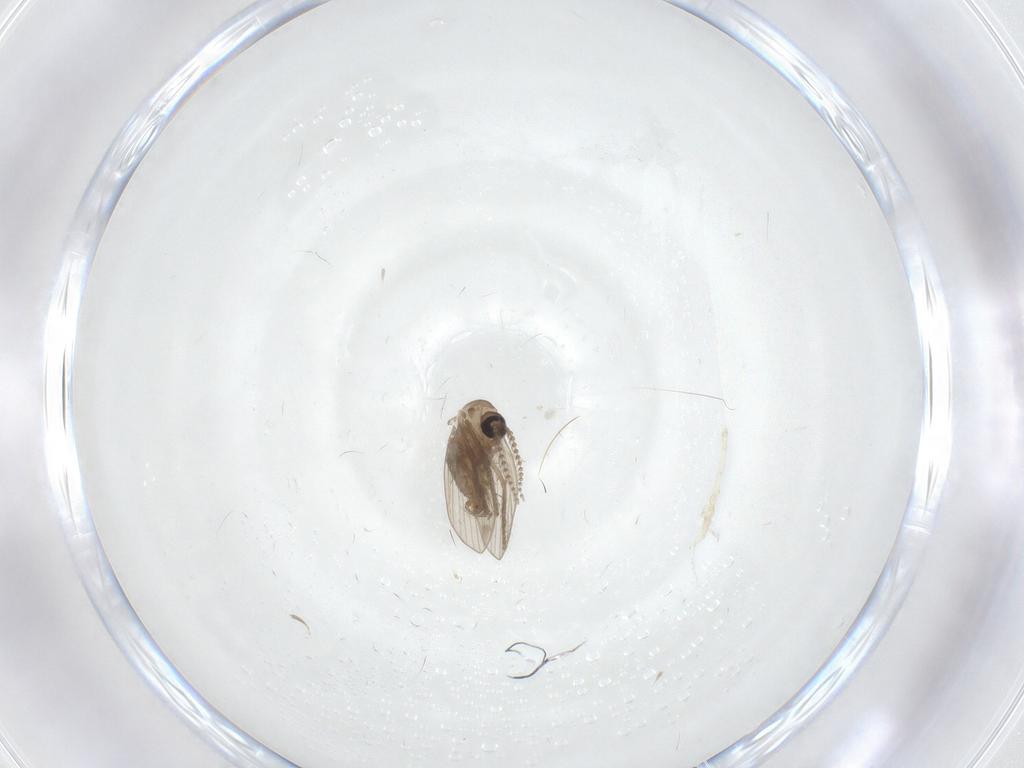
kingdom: Animalia
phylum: Arthropoda
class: Insecta
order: Diptera
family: Psychodidae
